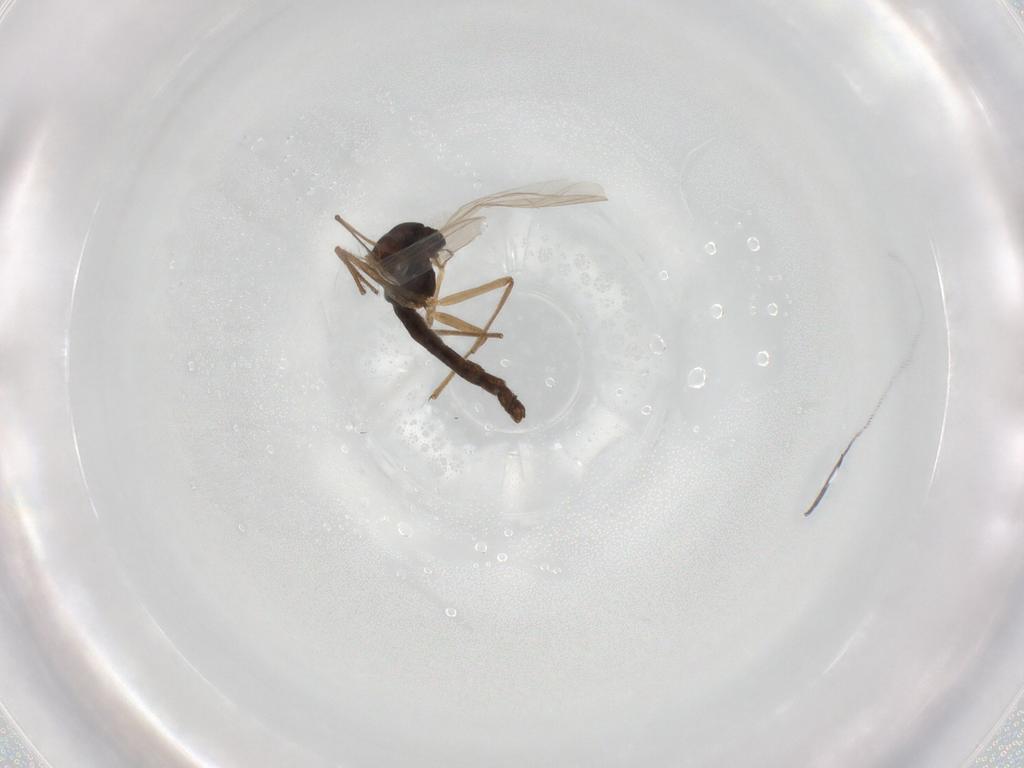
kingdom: Animalia
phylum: Arthropoda
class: Insecta
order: Diptera
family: Chironomidae
